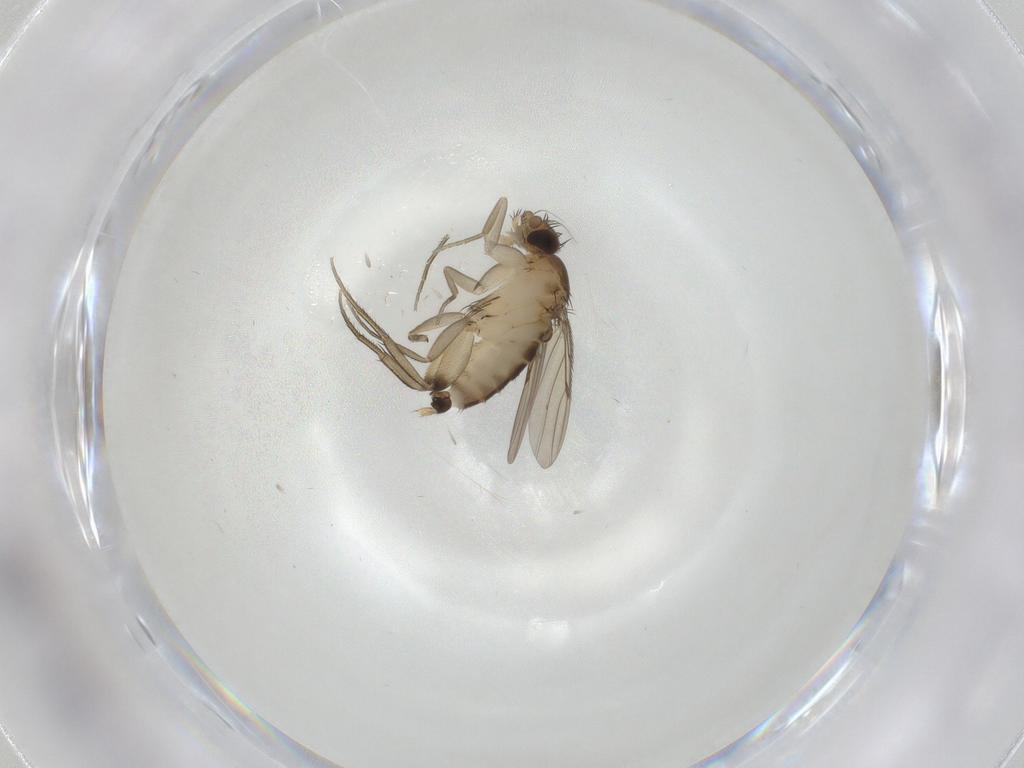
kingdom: Animalia
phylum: Arthropoda
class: Insecta
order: Diptera
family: Phoridae
